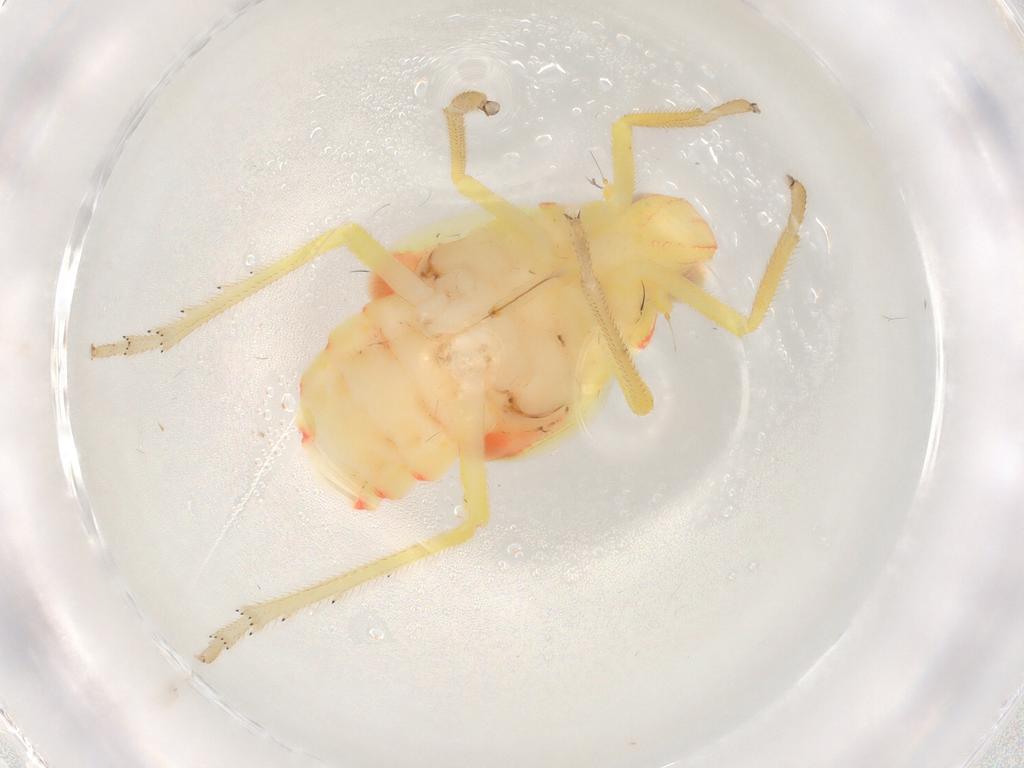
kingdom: Animalia
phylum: Arthropoda
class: Insecta
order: Hemiptera
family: Tropiduchidae
